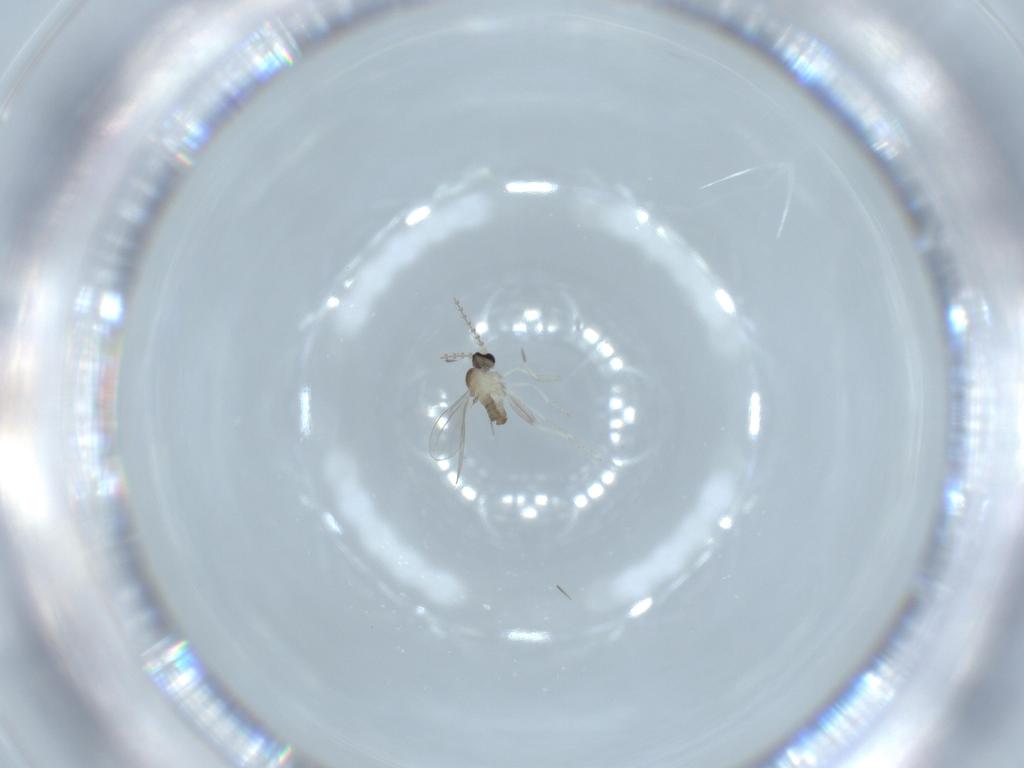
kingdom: Animalia
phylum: Arthropoda
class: Insecta
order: Diptera
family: Cecidomyiidae
